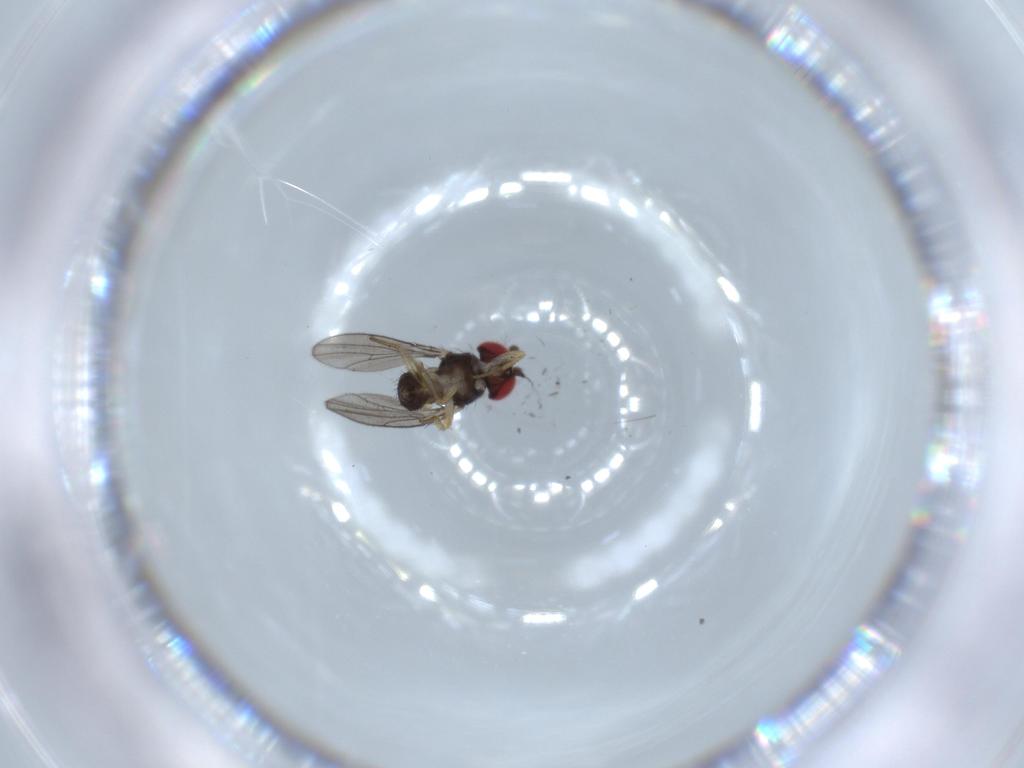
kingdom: Animalia
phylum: Arthropoda
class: Insecta
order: Diptera
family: Drosophilidae
